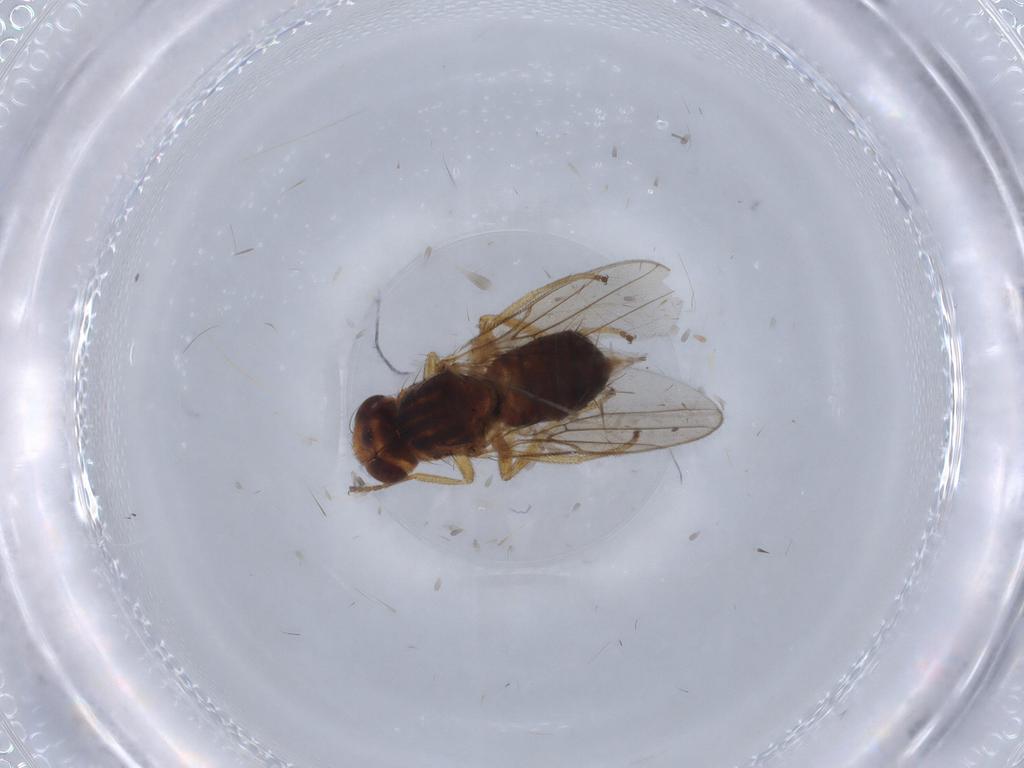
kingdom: Animalia
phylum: Arthropoda
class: Insecta
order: Diptera
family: Psychodidae
